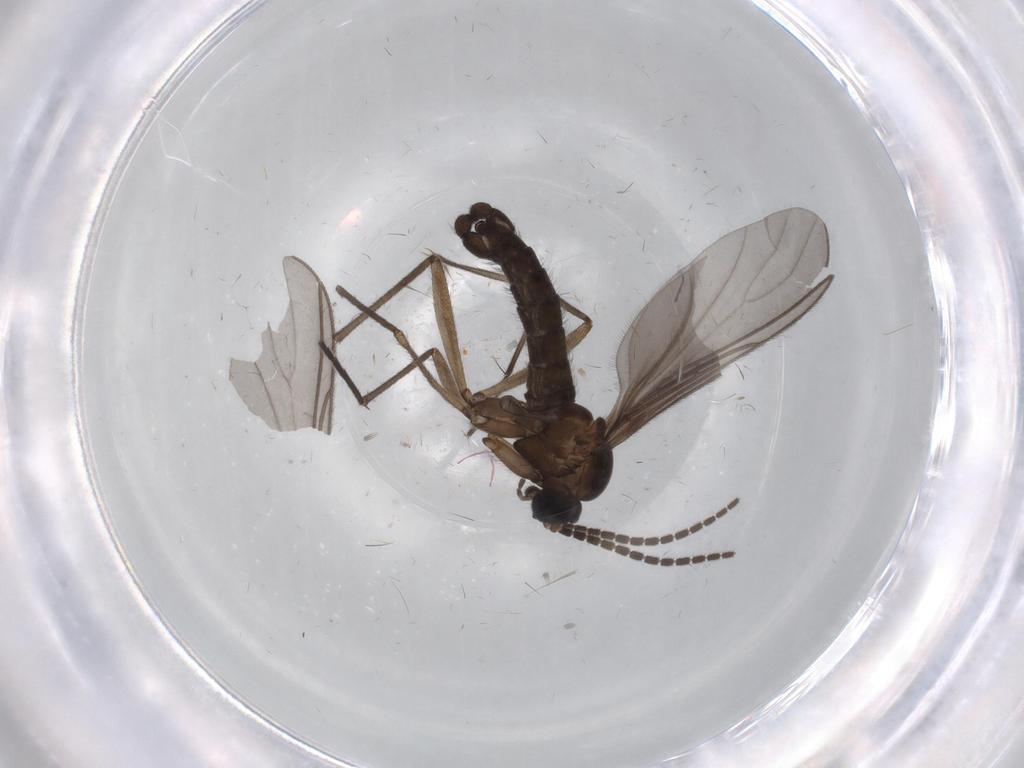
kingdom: Animalia
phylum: Arthropoda
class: Insecta
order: Diptera
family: Sciaridae
